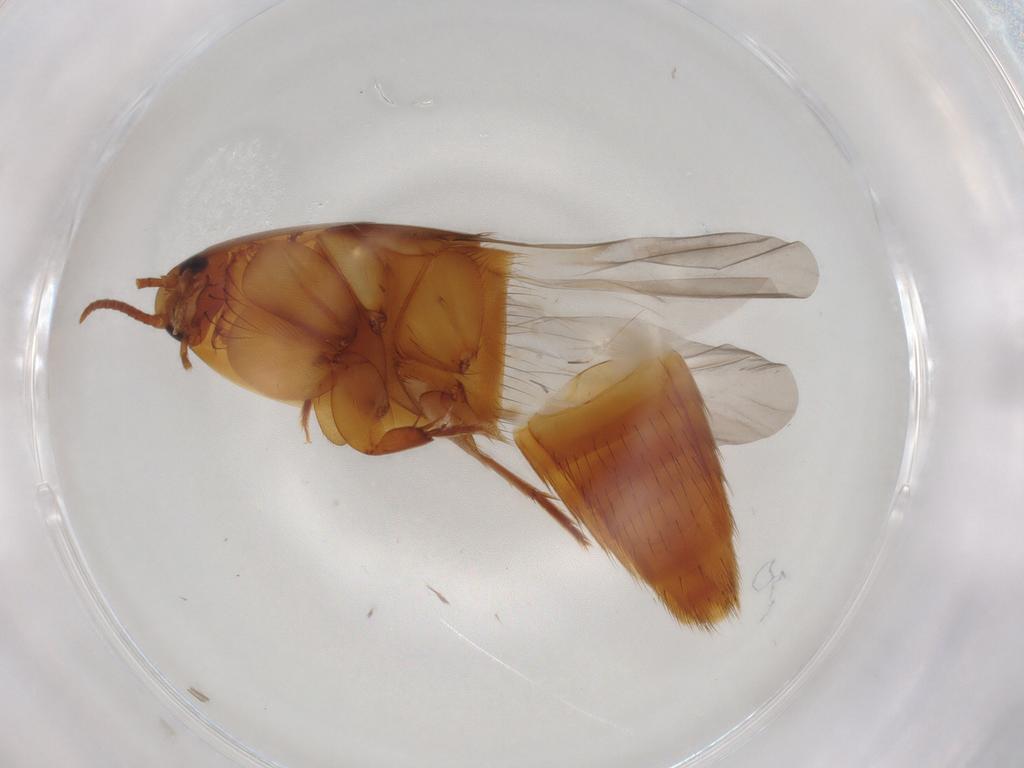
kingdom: Animalia
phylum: Arthropoda
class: Insecta
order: Coleoptera
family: Staphylinidae
